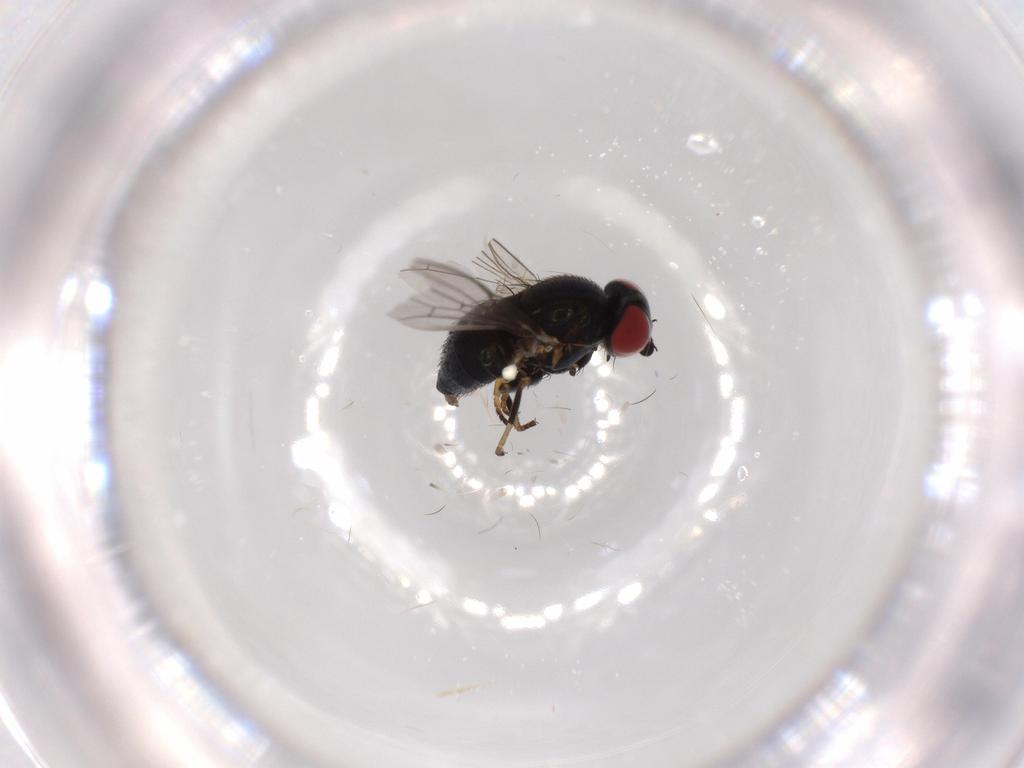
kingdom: Animalia
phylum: Arthropoda
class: Insecta
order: Diptera
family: Chamaemyiidae
